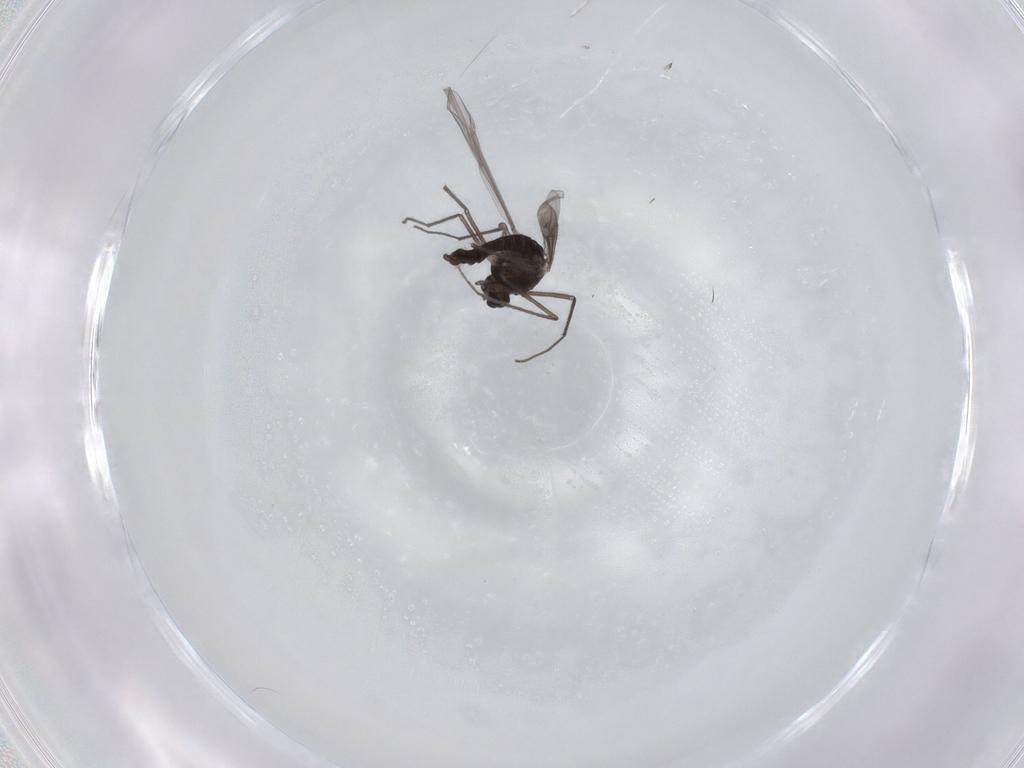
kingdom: Animalia
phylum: Arthropoda
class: Insecta
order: Diptera
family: Chironomidae
